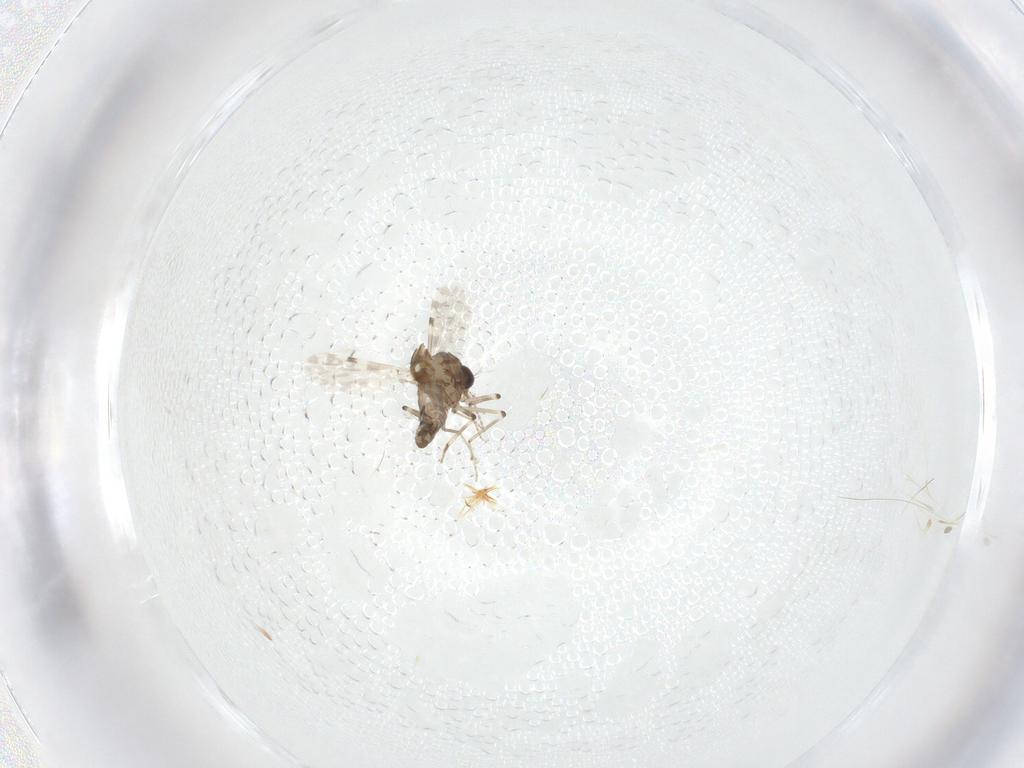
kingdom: Animalia
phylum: Arthropoda
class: Insecta
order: Diptera
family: Ceratopogonidae
